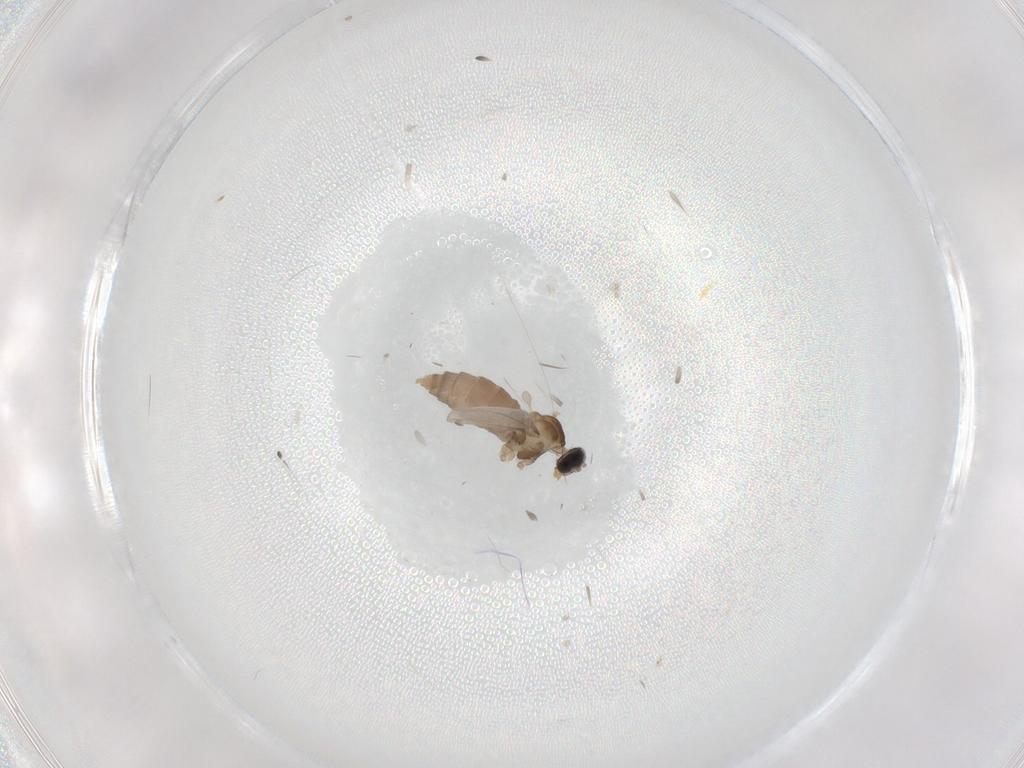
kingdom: Animalia
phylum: Arthropoda
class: Insecta
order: Diptera
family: Cecidomyiidae
